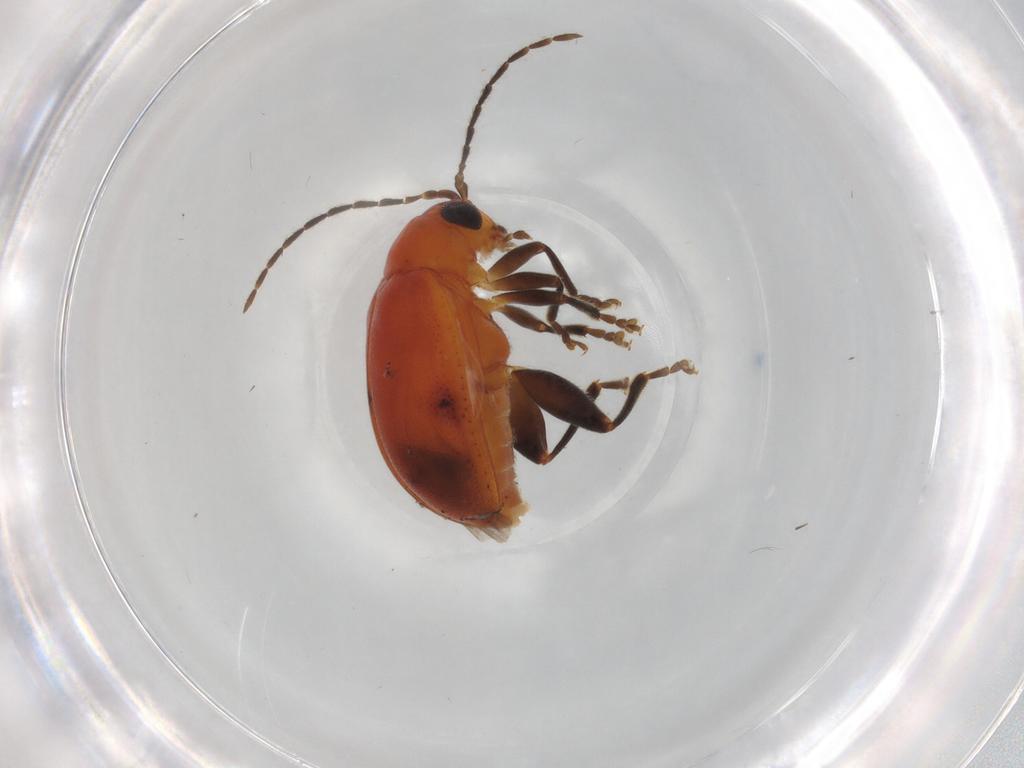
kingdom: Animalia
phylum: Arthropoda
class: Insecta
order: Coleoptera
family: Chrysomelidae
